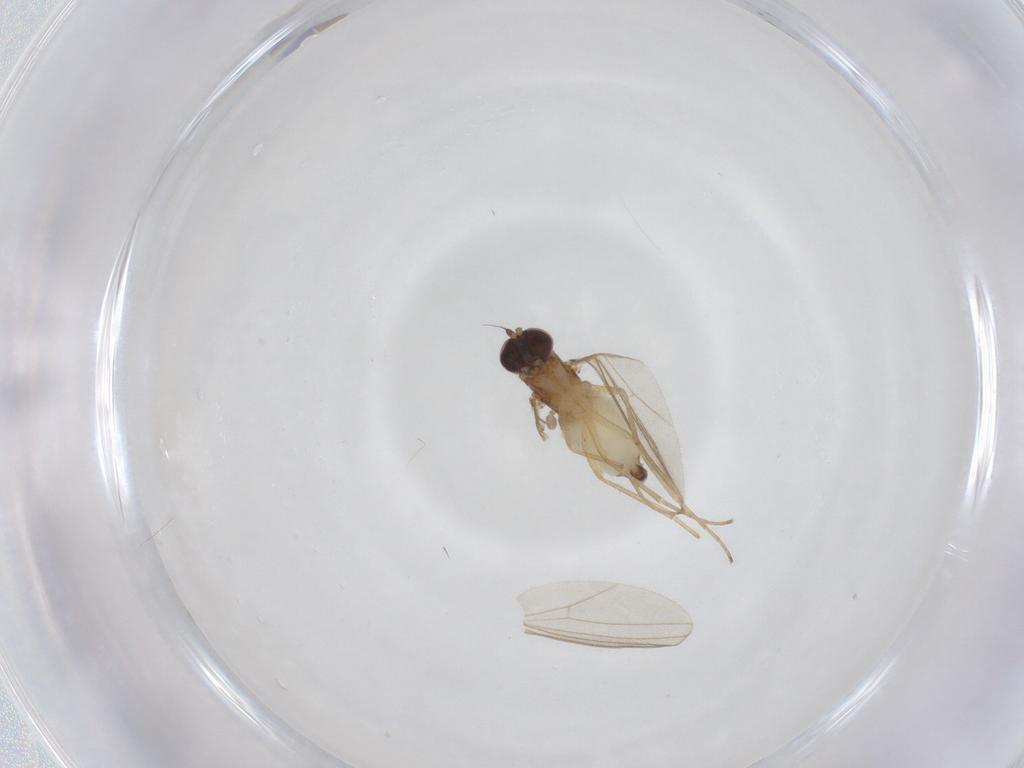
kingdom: Animalia
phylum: Arthropoda
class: Insecta
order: Diptera
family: Dolichopodidae
